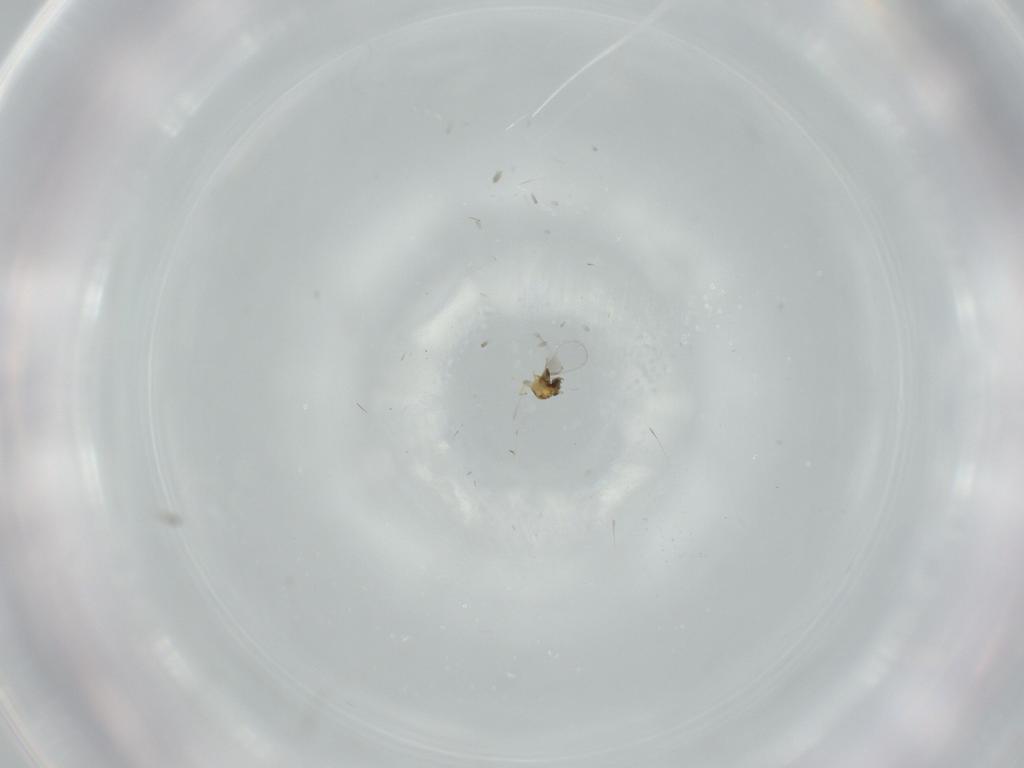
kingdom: Animalia
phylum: Arthropoda
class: Insecta
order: Hymenoptera
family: Trichogrammatidae
